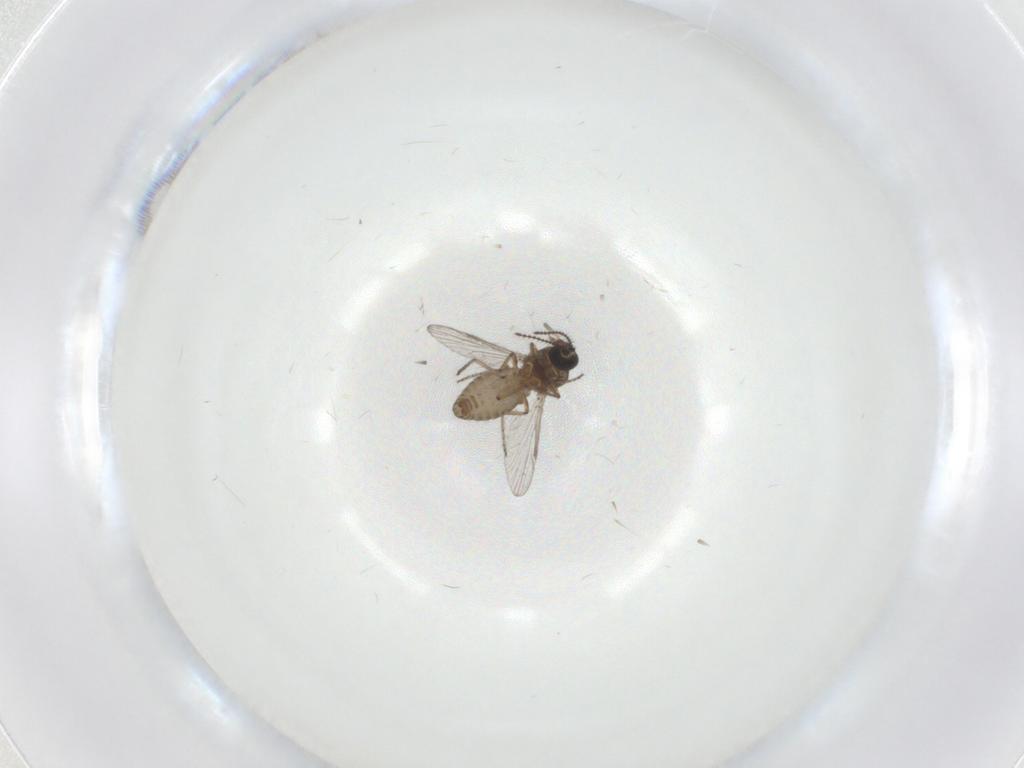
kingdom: Animalia
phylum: Arthropoda
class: Insecta
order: Diptera
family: Ceratopogonidae
